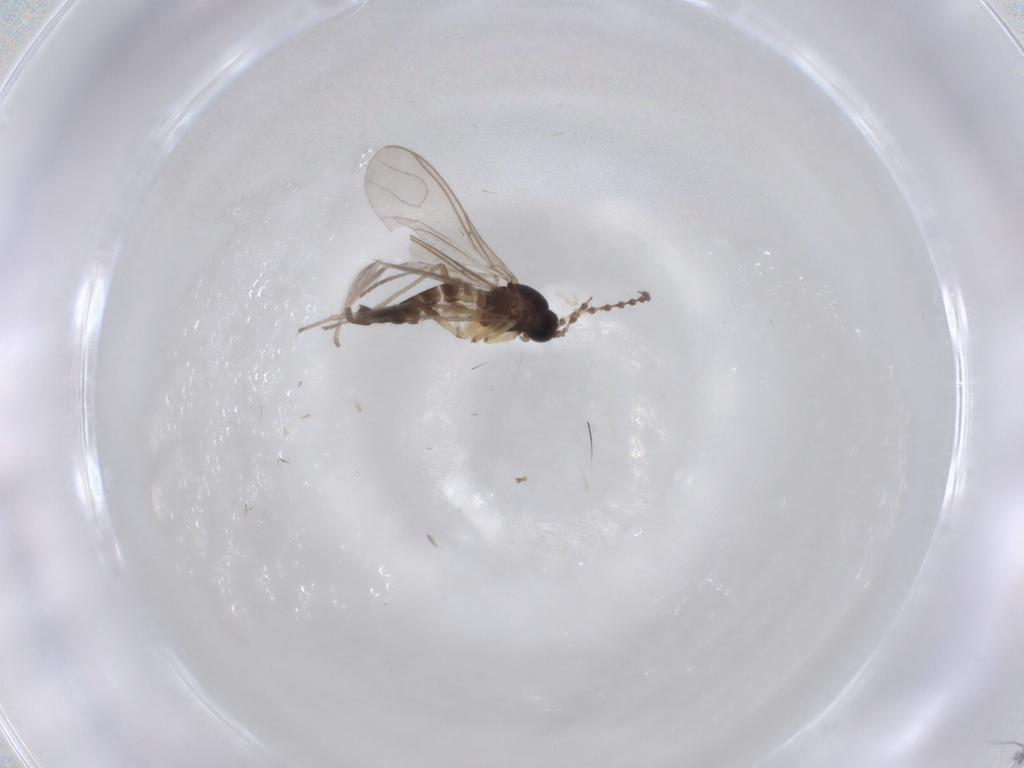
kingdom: Animalia
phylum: Arthropoda
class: Insecta
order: Diptera
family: Sciaridae
